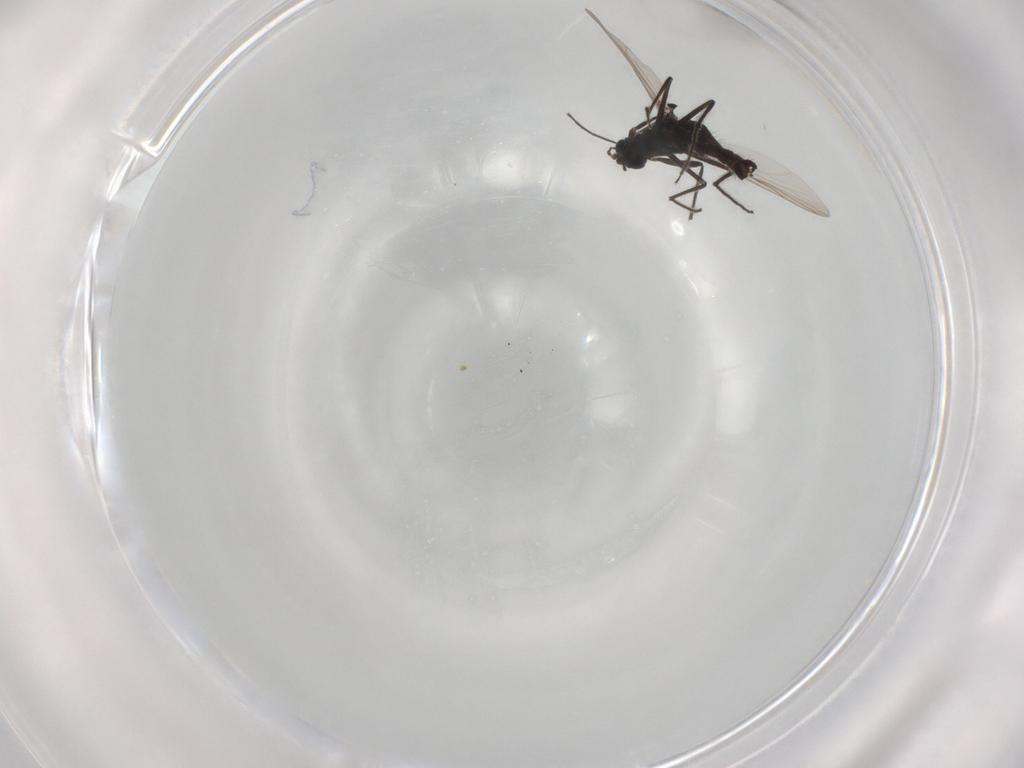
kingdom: Animalia
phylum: Arthropoda
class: Insecta
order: Diptera
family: Chironomidae
